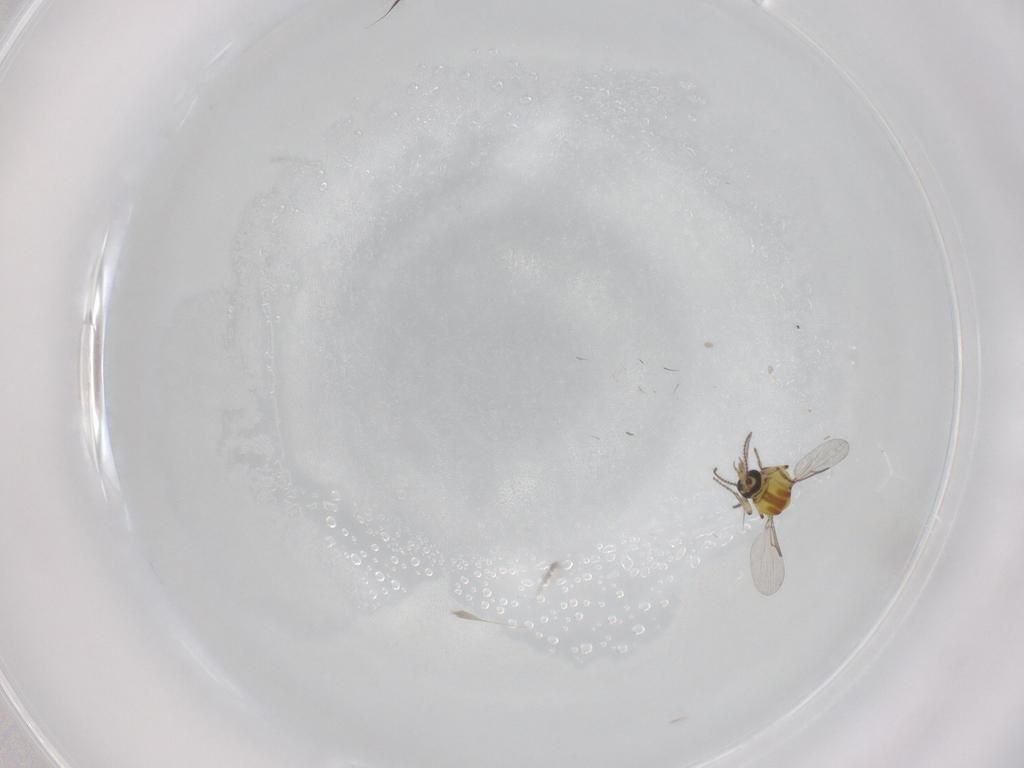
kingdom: Animalia
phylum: Arthropoda
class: Insecta
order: Diptera
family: Ceratopogonidae
